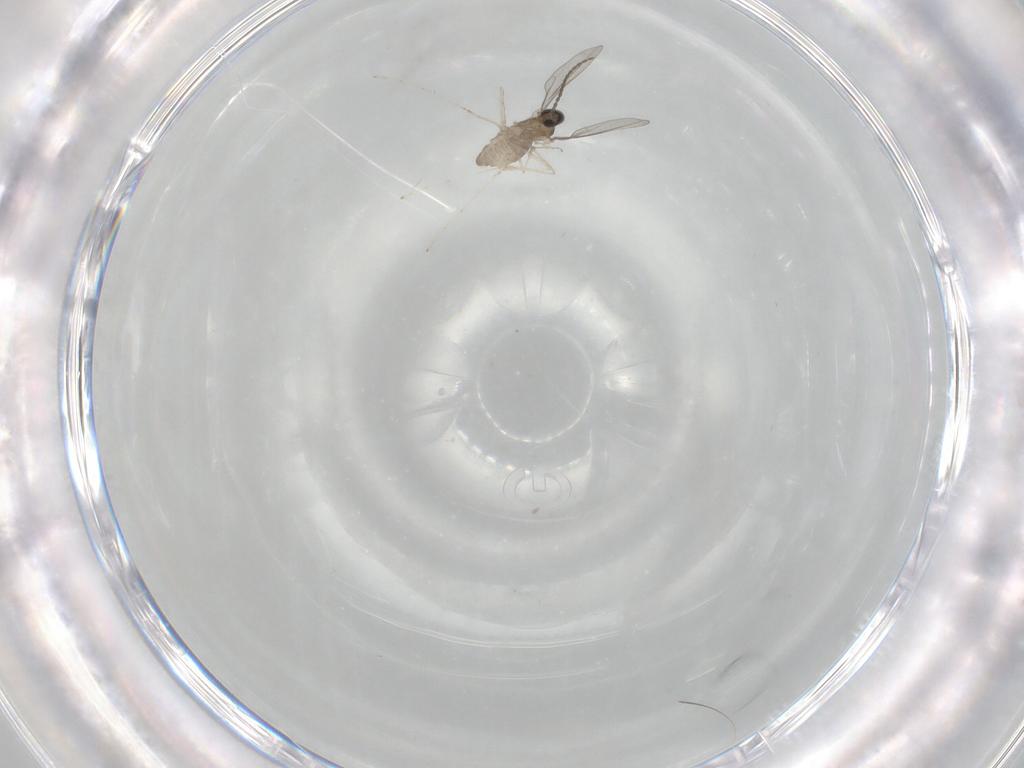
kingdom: Animalia
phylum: Arthropoda
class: Insecta
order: Diptera
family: Cecidomyiidae
